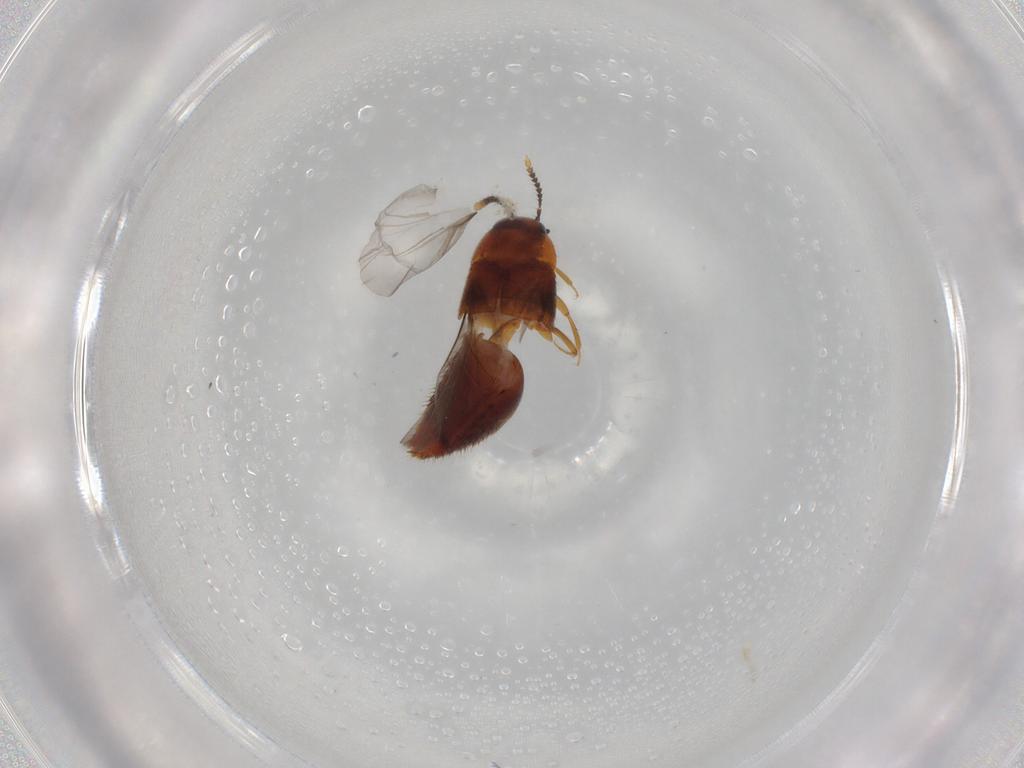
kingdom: Animalia
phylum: Arthropoda
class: Insecta
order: Coleoptera
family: Staphylinidae
